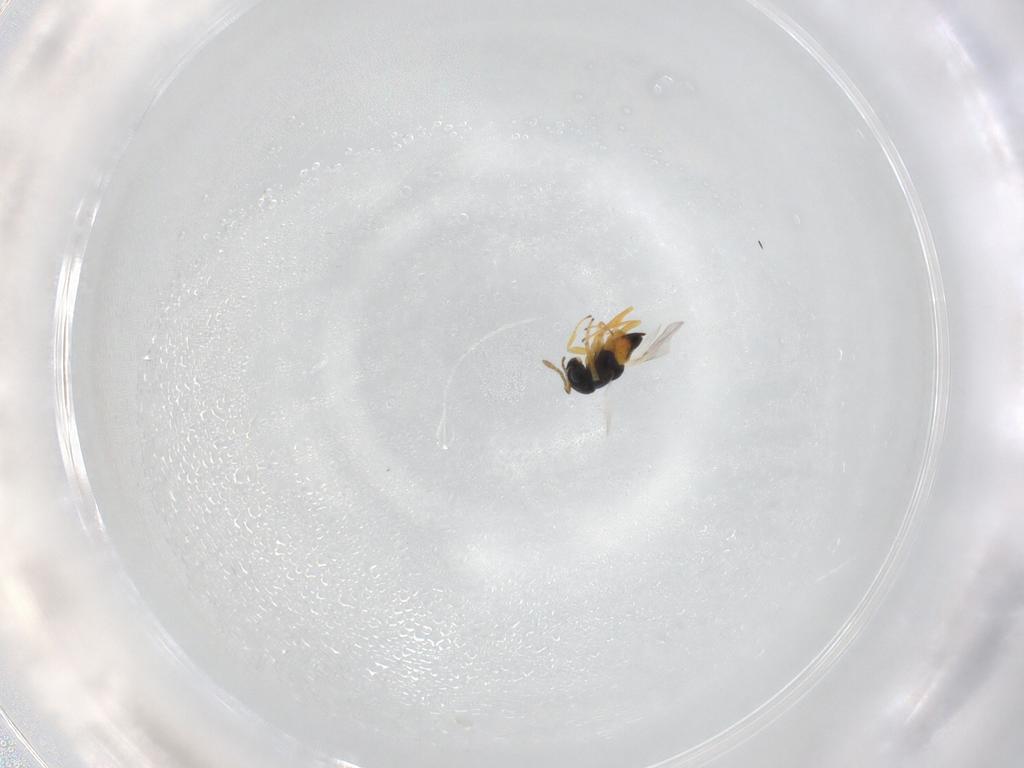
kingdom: Animalia
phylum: Arthropoda
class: Insecta
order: Hymenoptera
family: Encyrtidae
